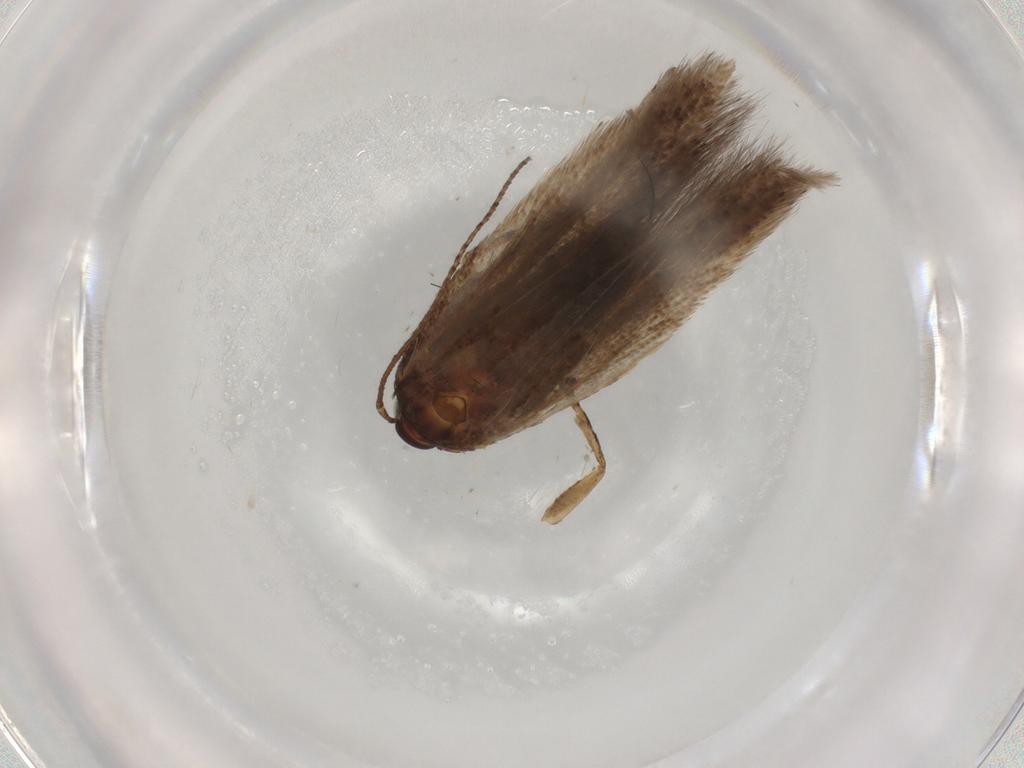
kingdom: Animalia
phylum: Arthropoda
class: Insecta
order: Lepidoptera
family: Gelechiidae
